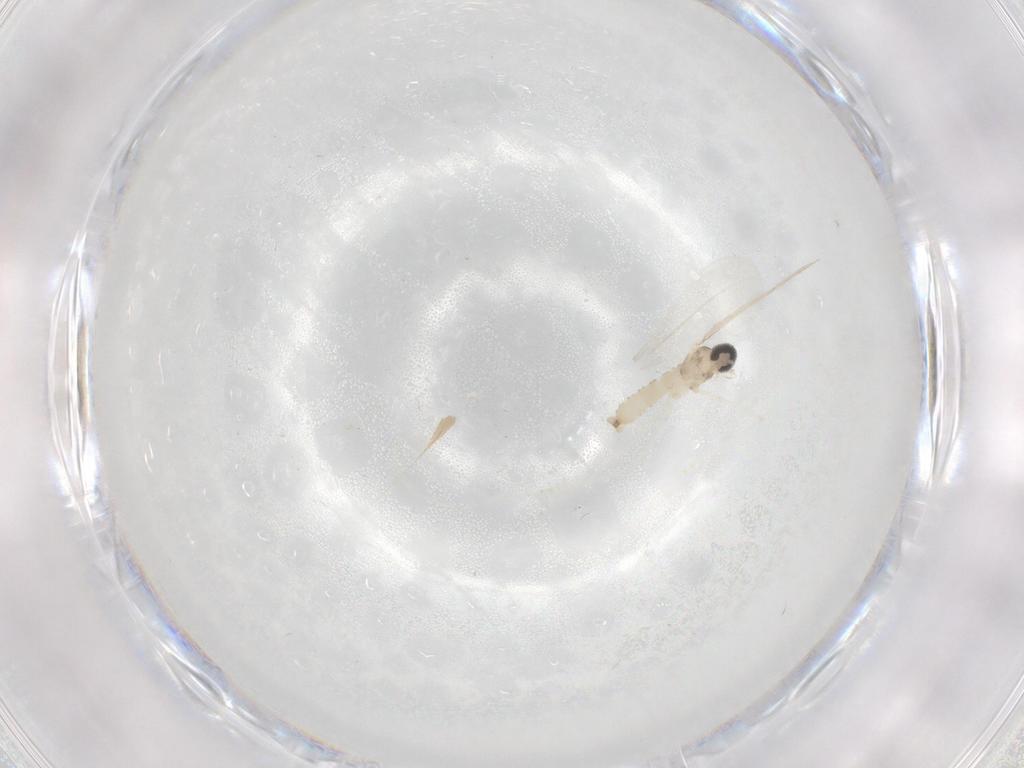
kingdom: Animalia
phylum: Arthropoda
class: Insecta
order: Diptera
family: Cecidomyiidae
